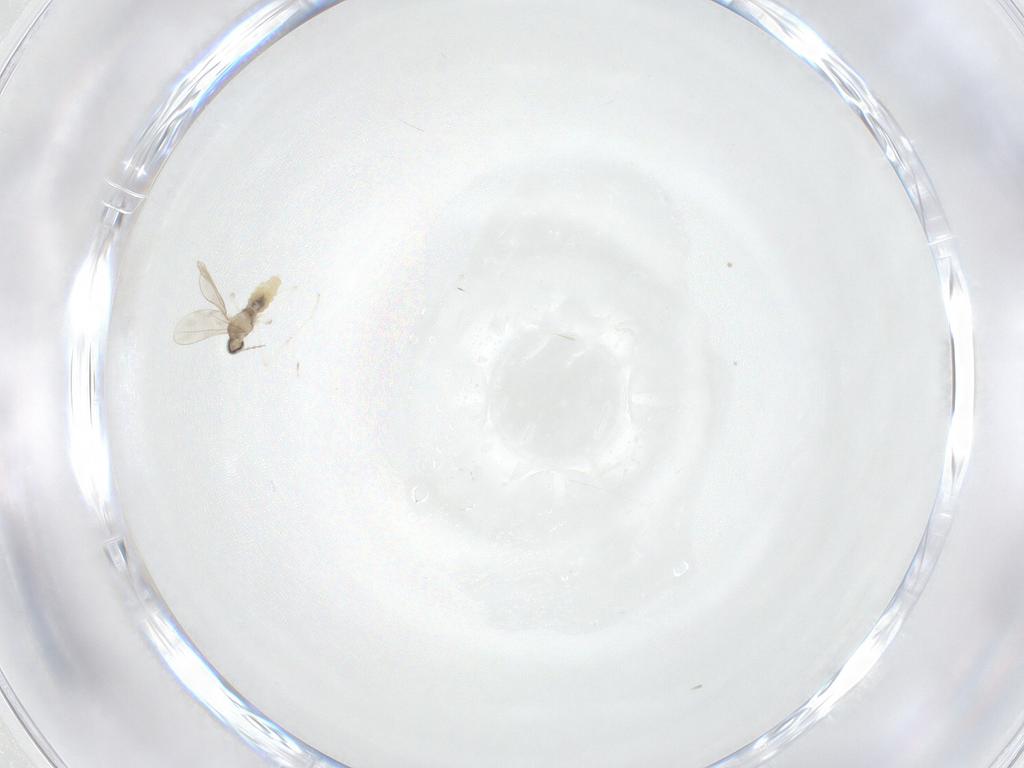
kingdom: Animalia
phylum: Arthropoda
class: Insecta
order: Diptera
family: Cecidomyiidae
